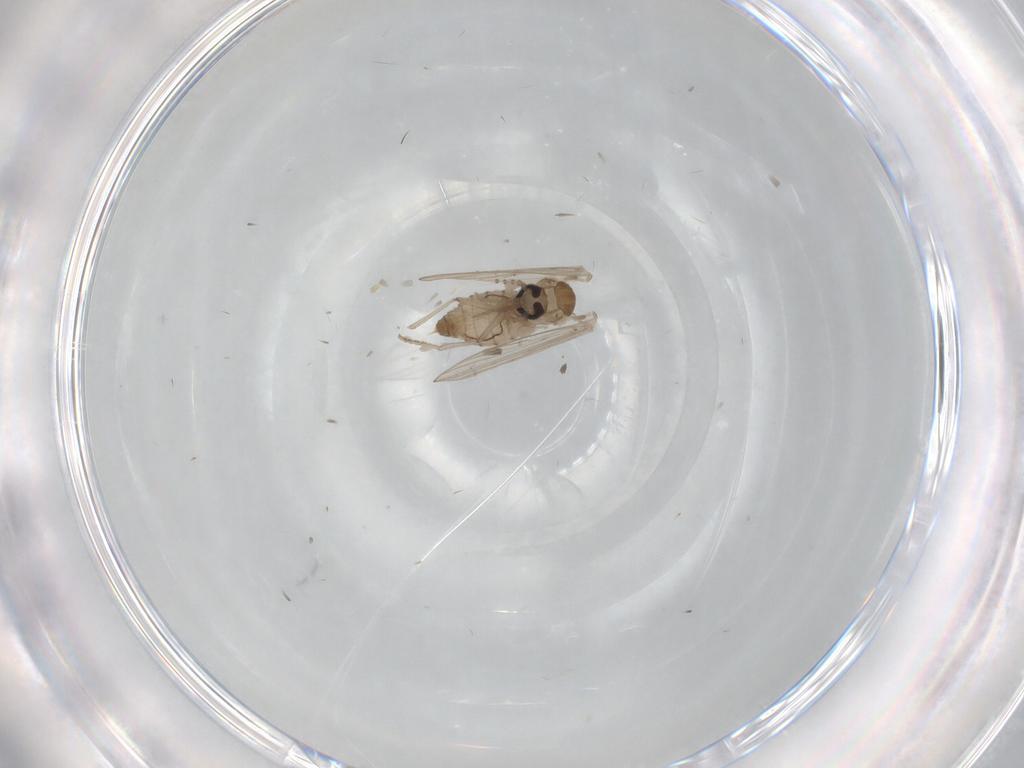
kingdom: Animalia
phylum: Arthropoda
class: Insecta
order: Diptera
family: Psychodidae
